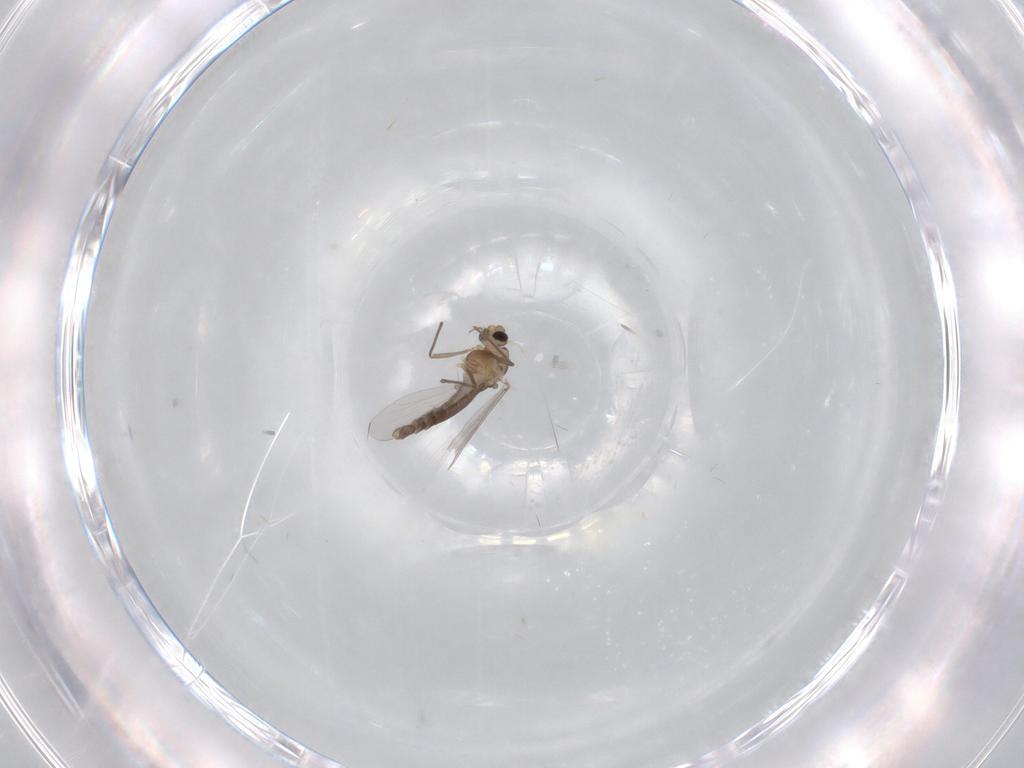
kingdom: Animalia
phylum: Arthropoda
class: Insecta
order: Diptera
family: Chironomidae
